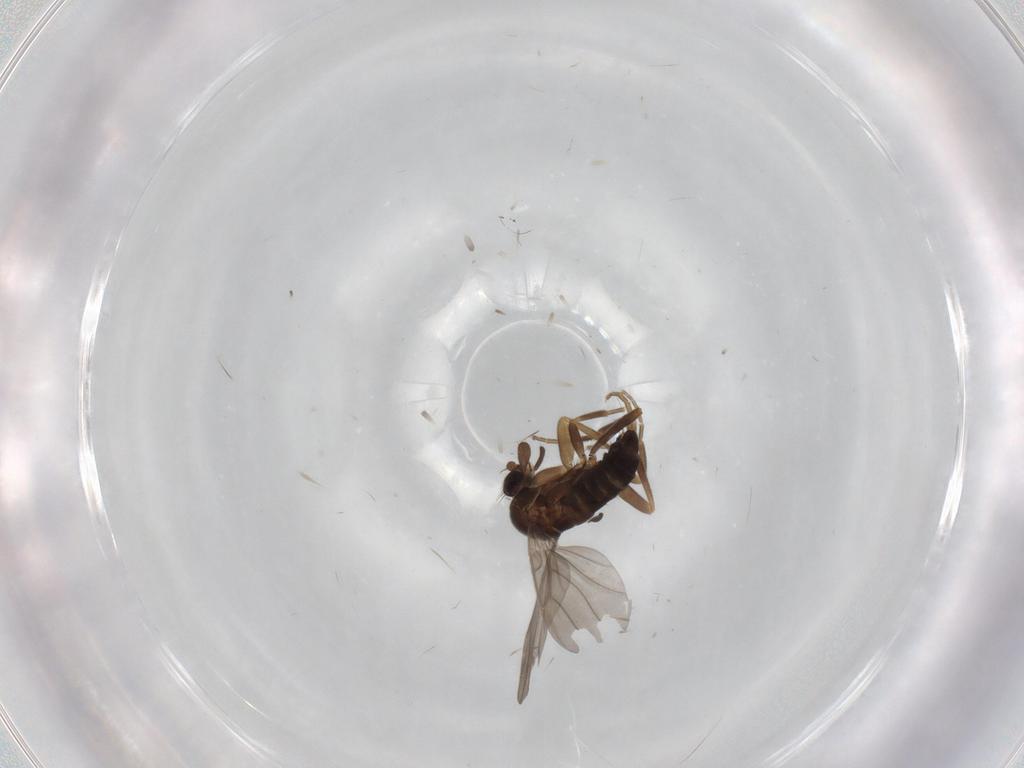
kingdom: Animalia
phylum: Arthropoda
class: Insecta
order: Diptera
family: Phoridae
